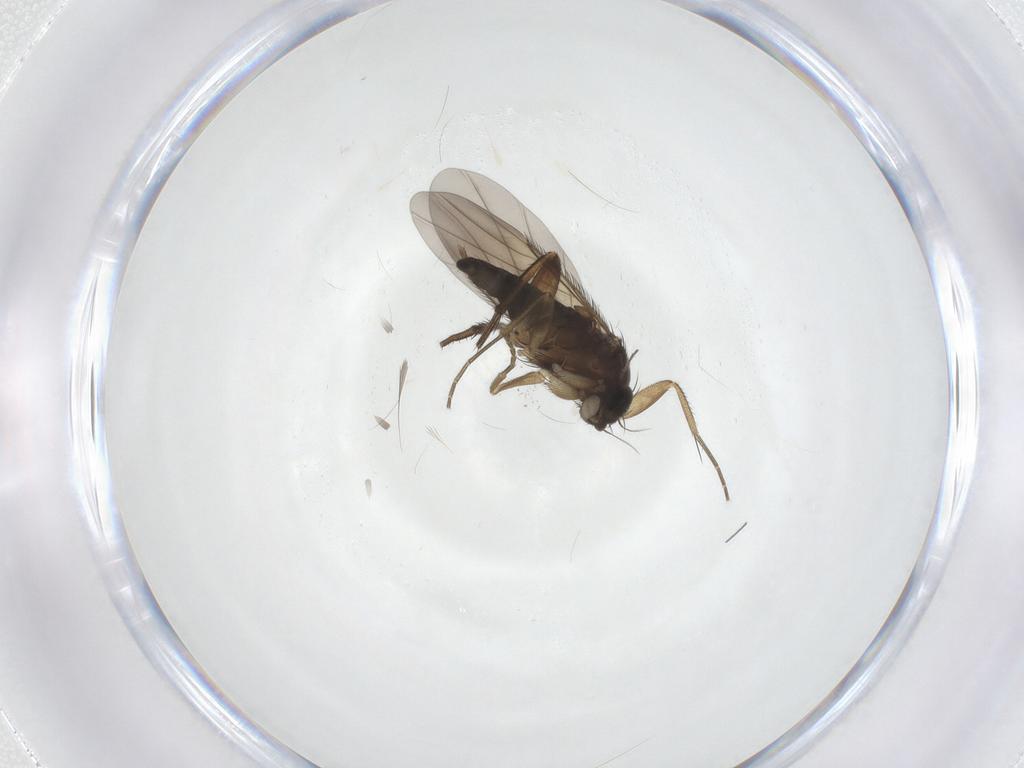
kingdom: Animalia
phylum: Arthropoda
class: Insecta
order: Diptera
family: Phoridae
